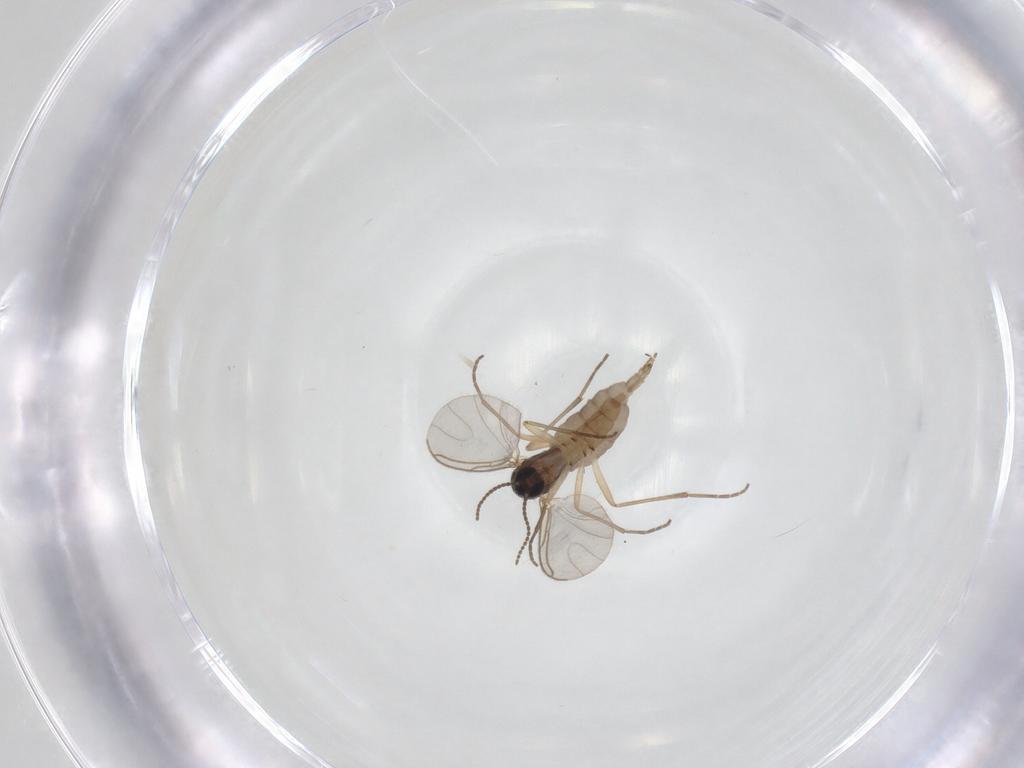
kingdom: Animalia
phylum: Arthropoda
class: Insecta
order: Diptera
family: Sciaridae
